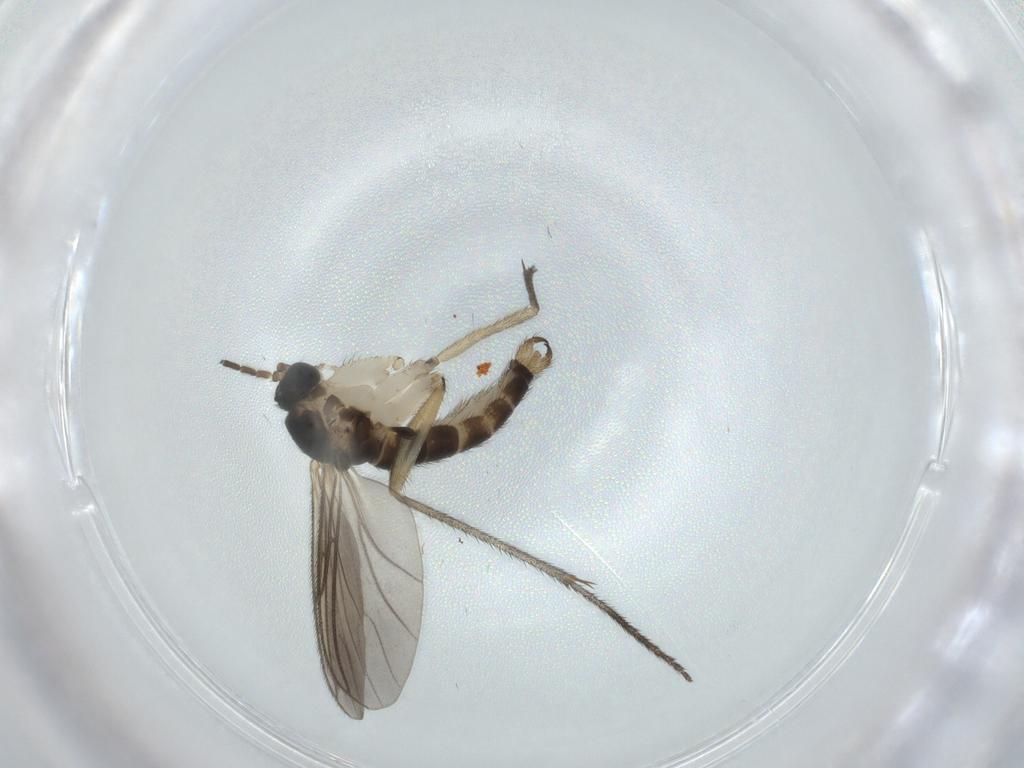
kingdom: Animalia
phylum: Arthropoda
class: Insecta
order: Diptera
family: Sciaridae
